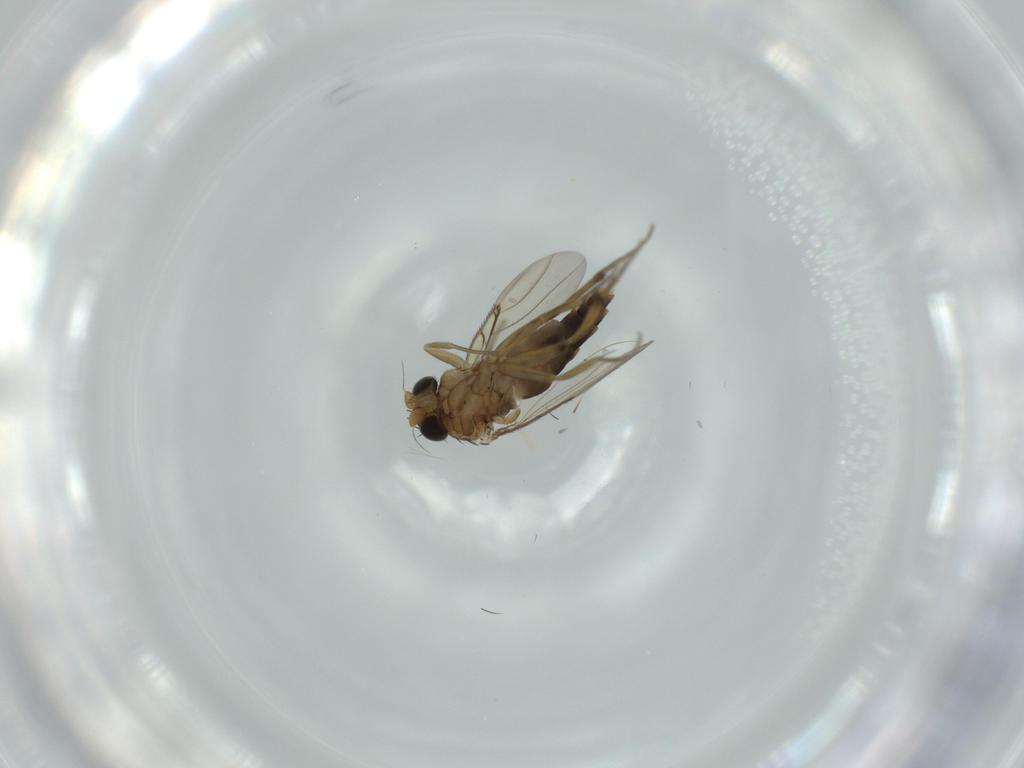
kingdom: Animalia
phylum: Arthropoda
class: Insecta
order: Diptera
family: Phoridae
